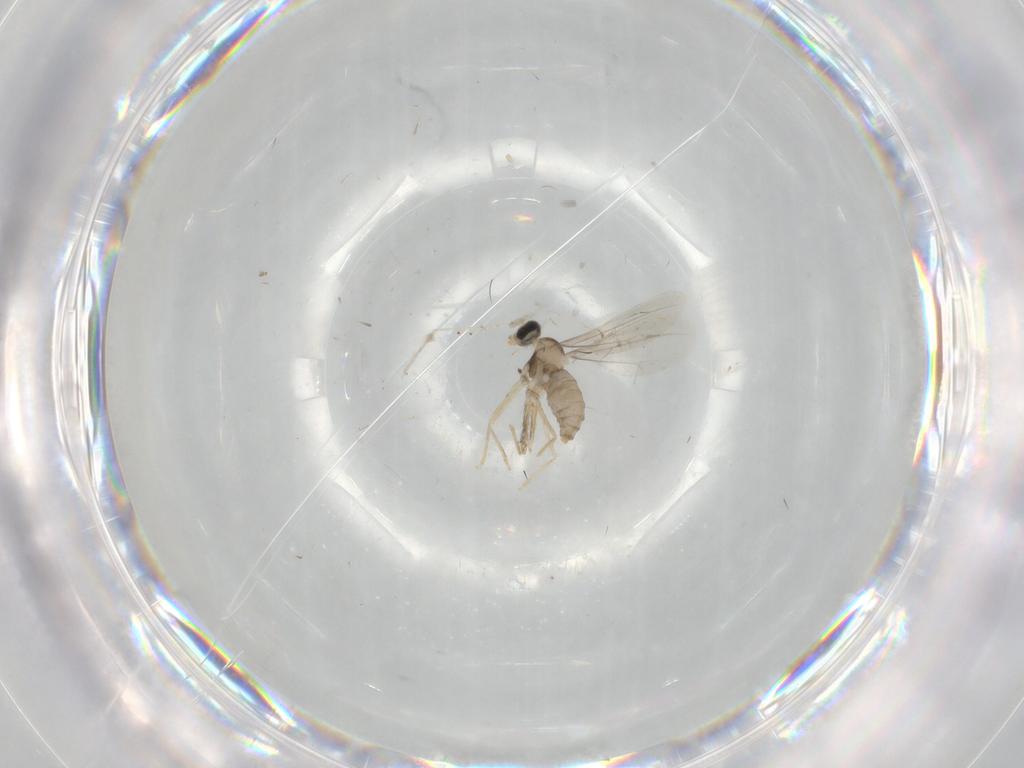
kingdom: Animalia
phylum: Arthropoda
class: Insecta
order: Diptera
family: Cecidomyiidae
